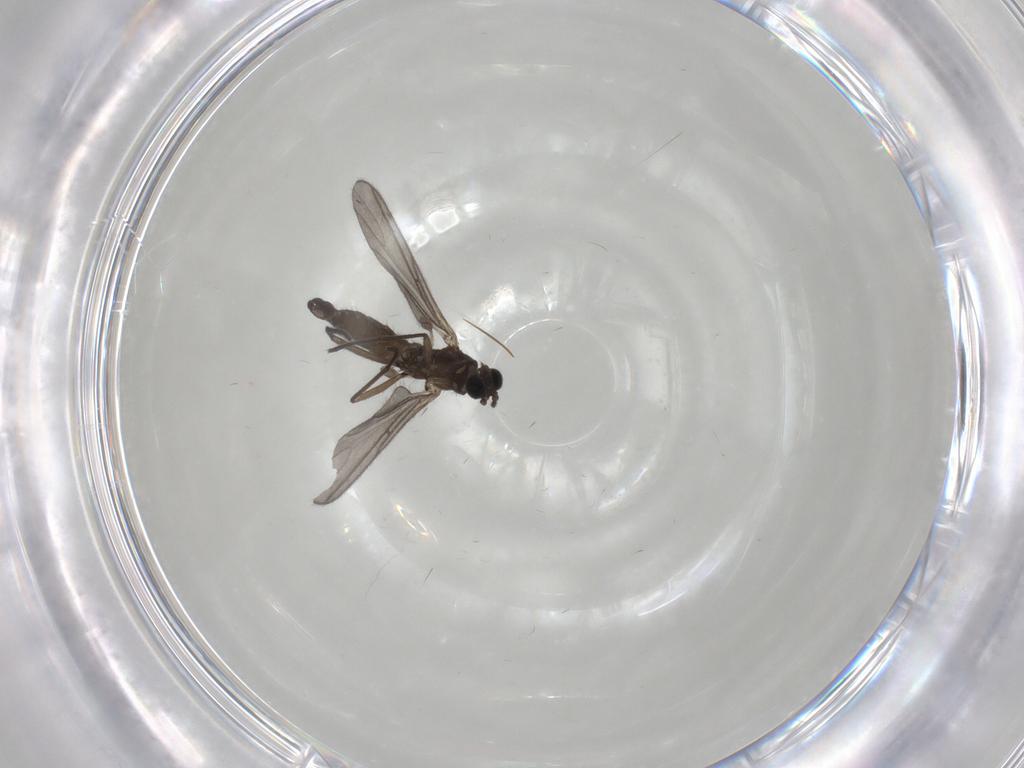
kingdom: Animalia
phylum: Arthropoda
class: Insecta
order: Diptera
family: Sciaridae
